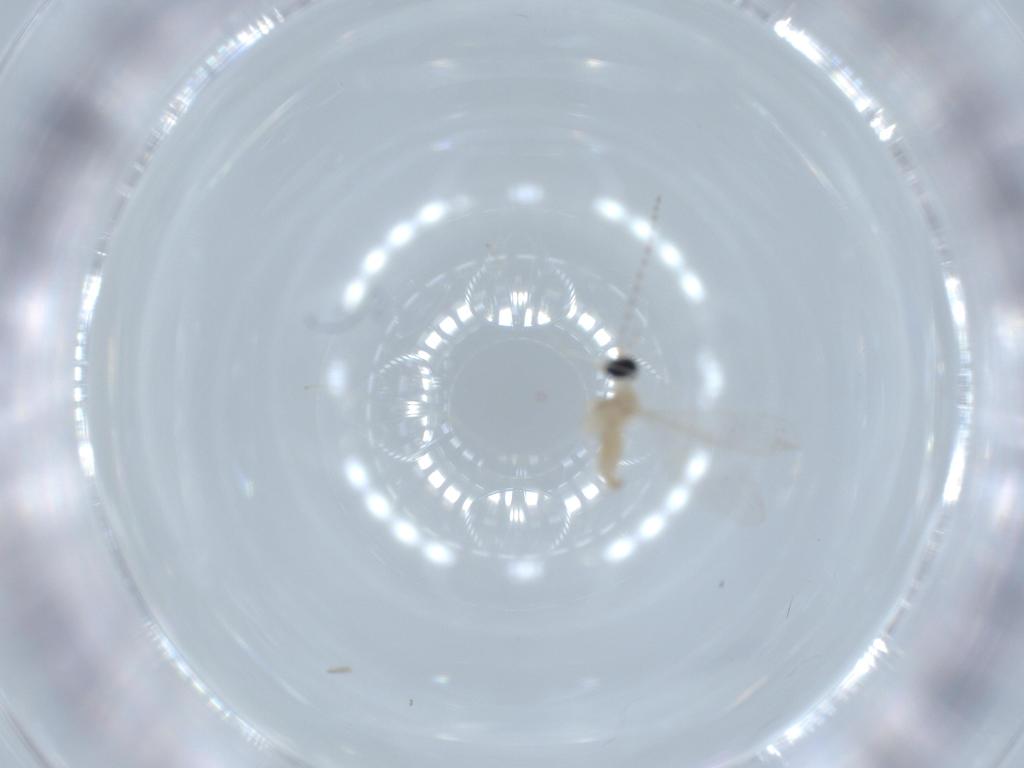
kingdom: Animalia
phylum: Arthropoda
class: Insecta
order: Diptera
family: Cecidomyiidae
